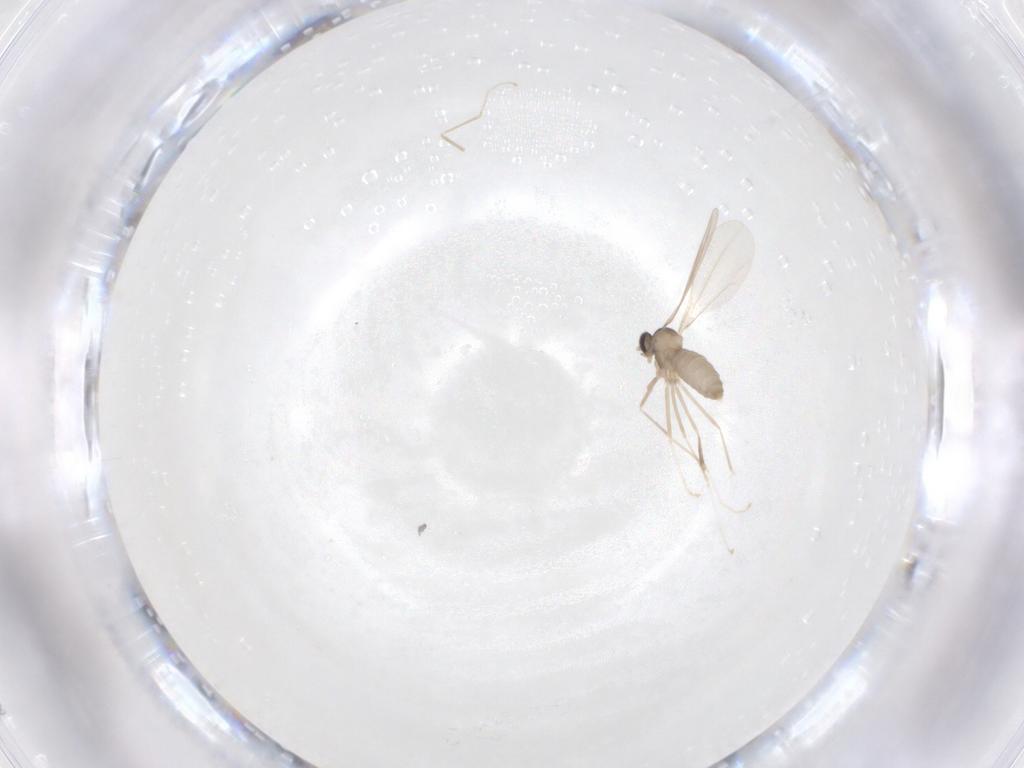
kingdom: Animalia
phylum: Arthropoda
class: Insecta
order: Diptera
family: Cecidomyiidae
